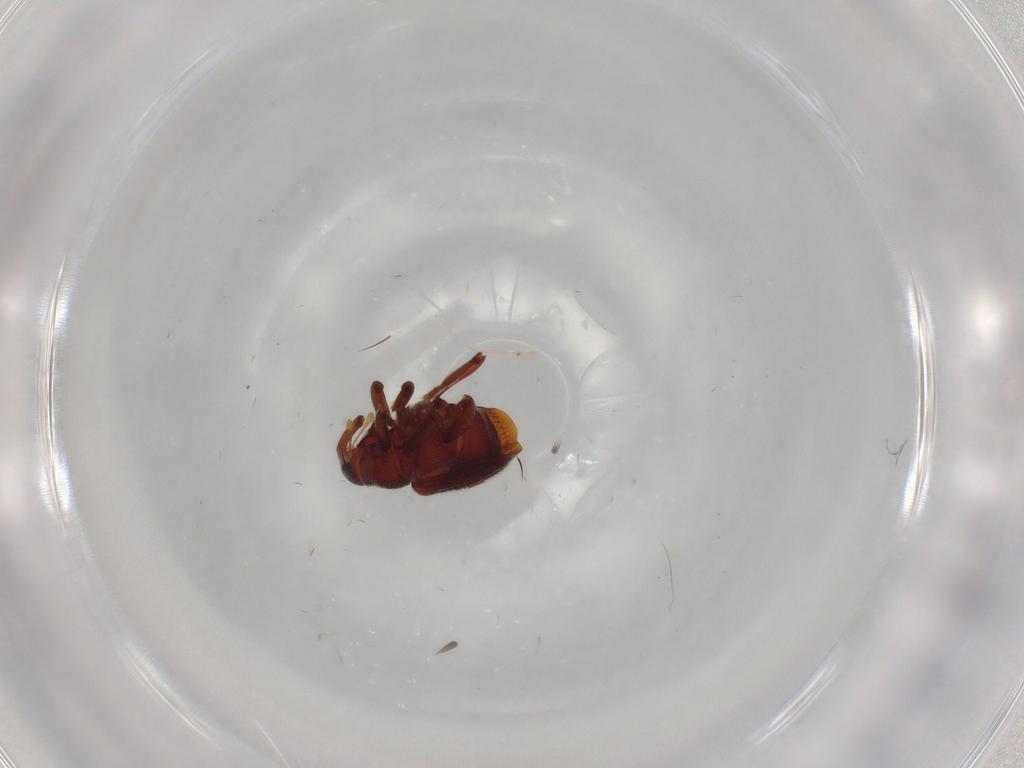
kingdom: Animalia
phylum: Arthropoda
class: Insecta
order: Coleoptera
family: Curculionidae
